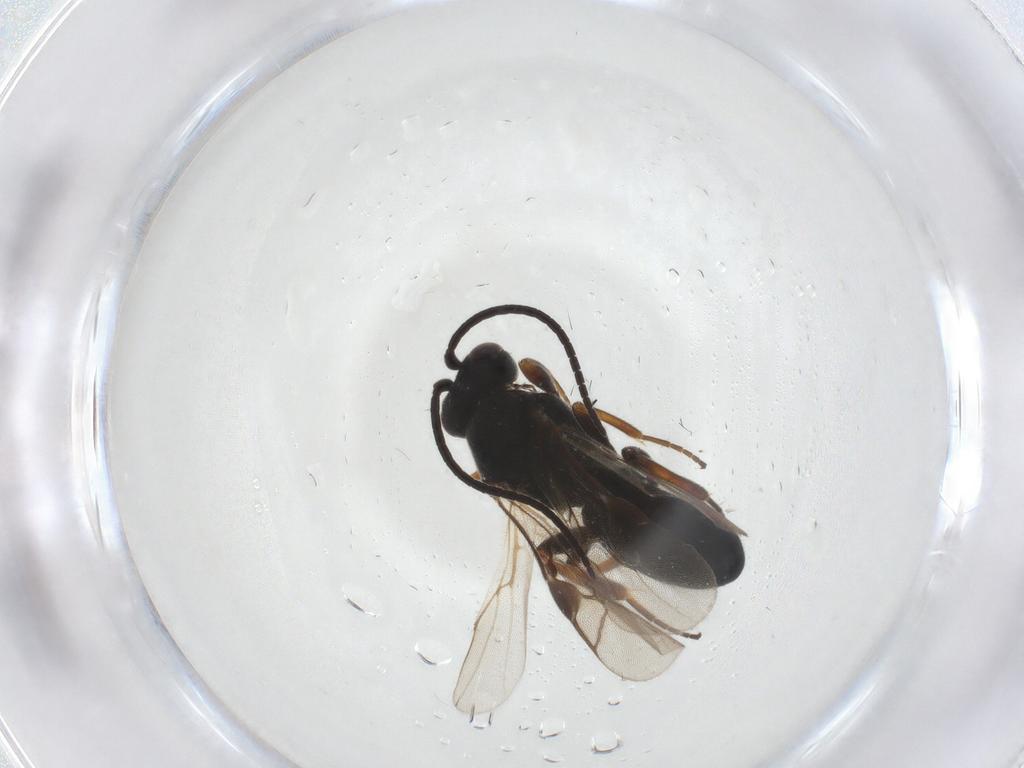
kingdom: Animalia
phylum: Arthropoda
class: Insecta
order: Hymenoptera
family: Braconidae
